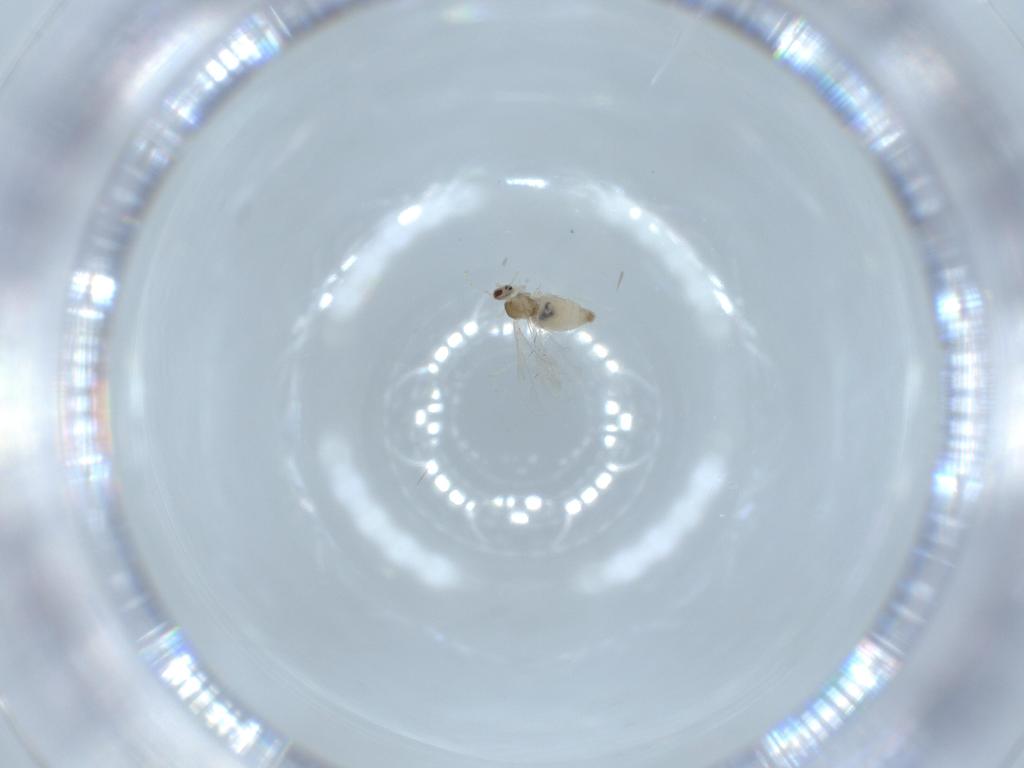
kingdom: Animalia
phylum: Arthropoda
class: Insecta
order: Diptera
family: Cecidomyiidae
